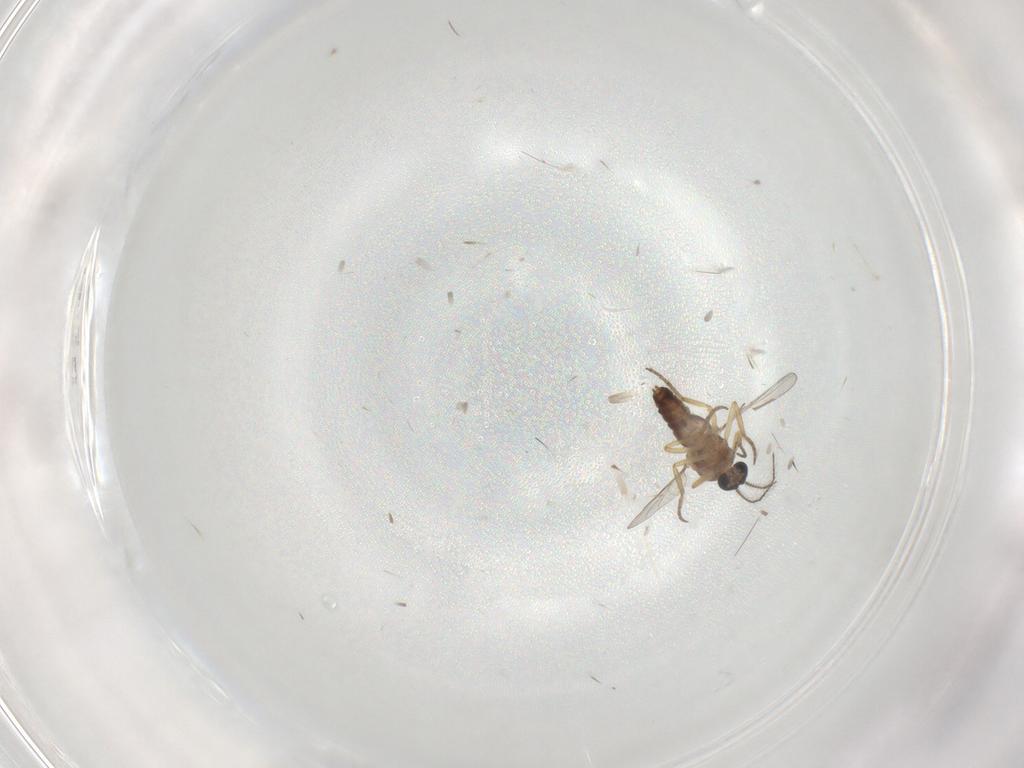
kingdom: Animalia
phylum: Arthropoda
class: Insecta
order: Diptera
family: Ceratopogonidae
